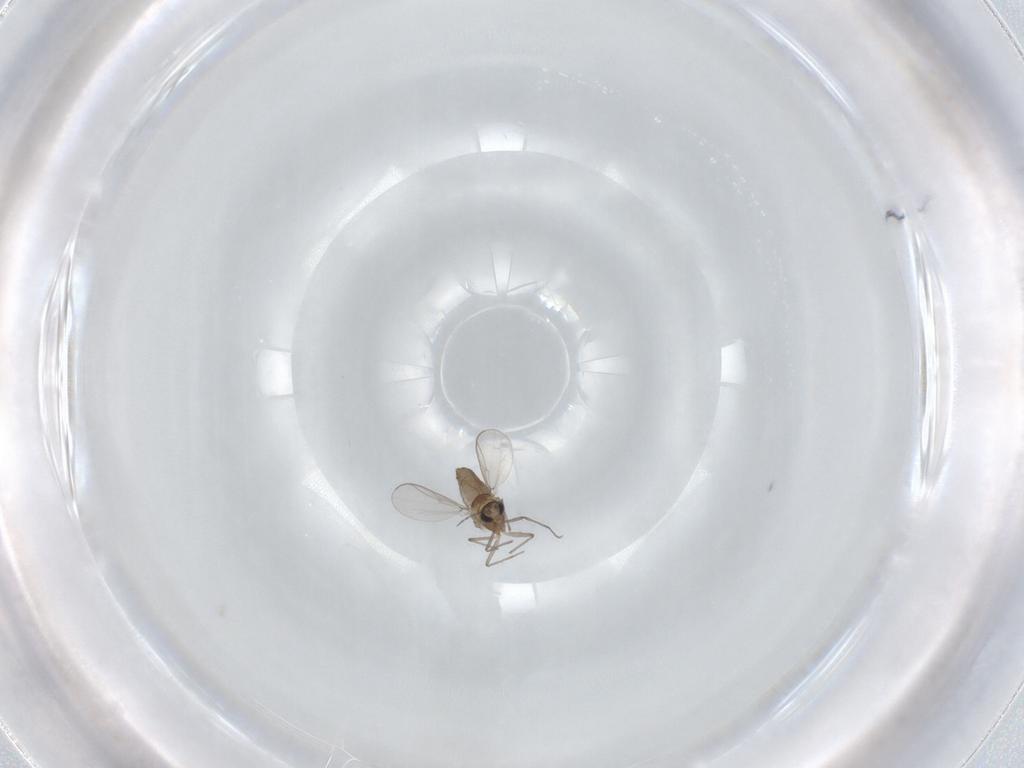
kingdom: Animalia
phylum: Arthropoda
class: Insecta
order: Diptera
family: Chironomidae
